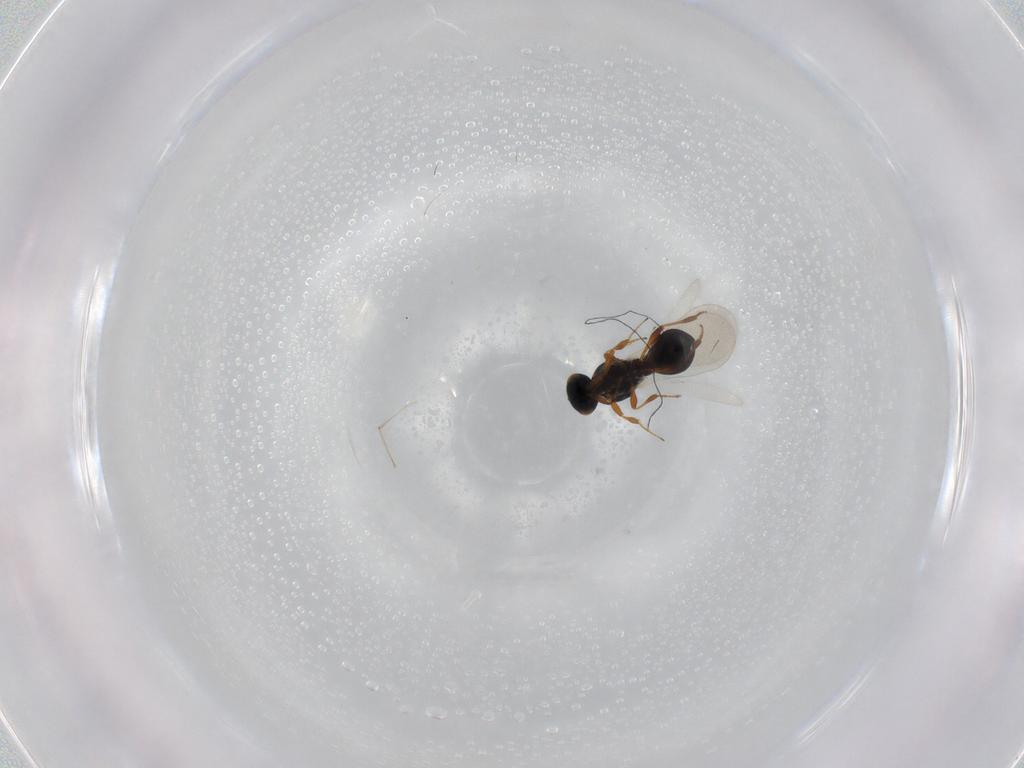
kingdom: Animalia
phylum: Arthropoda
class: Insecta
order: Hymenoptera
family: Platygastridae
